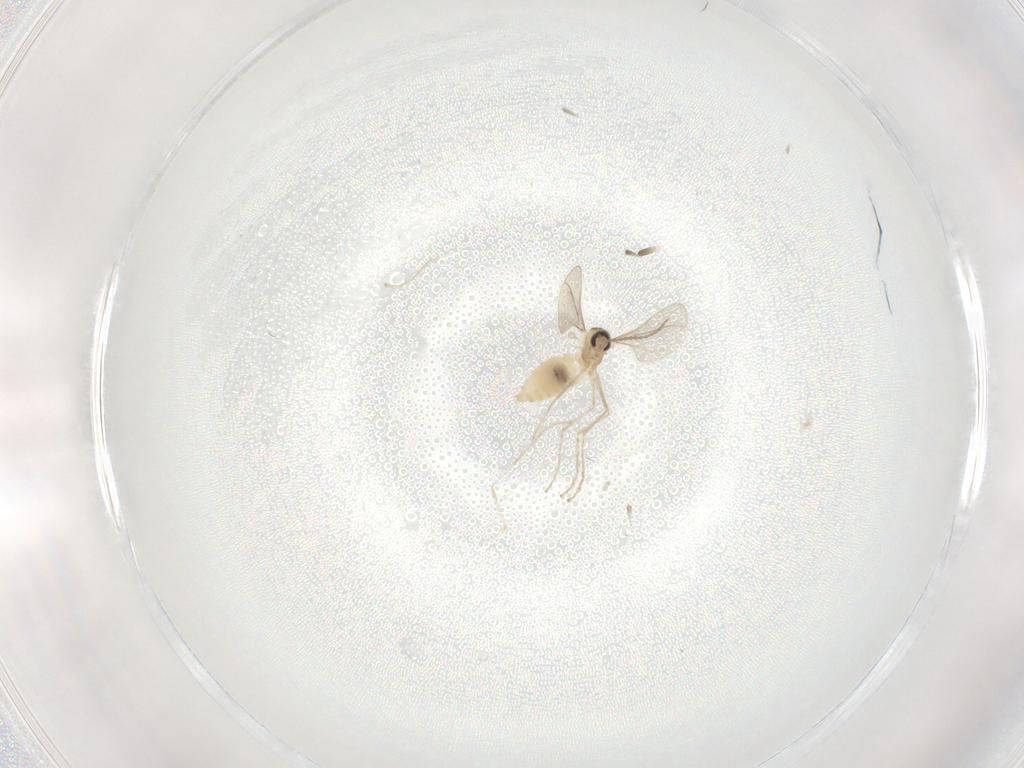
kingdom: Animalia
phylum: Arthropoda
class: Insecta
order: Diptera
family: Cecidomyiidae
